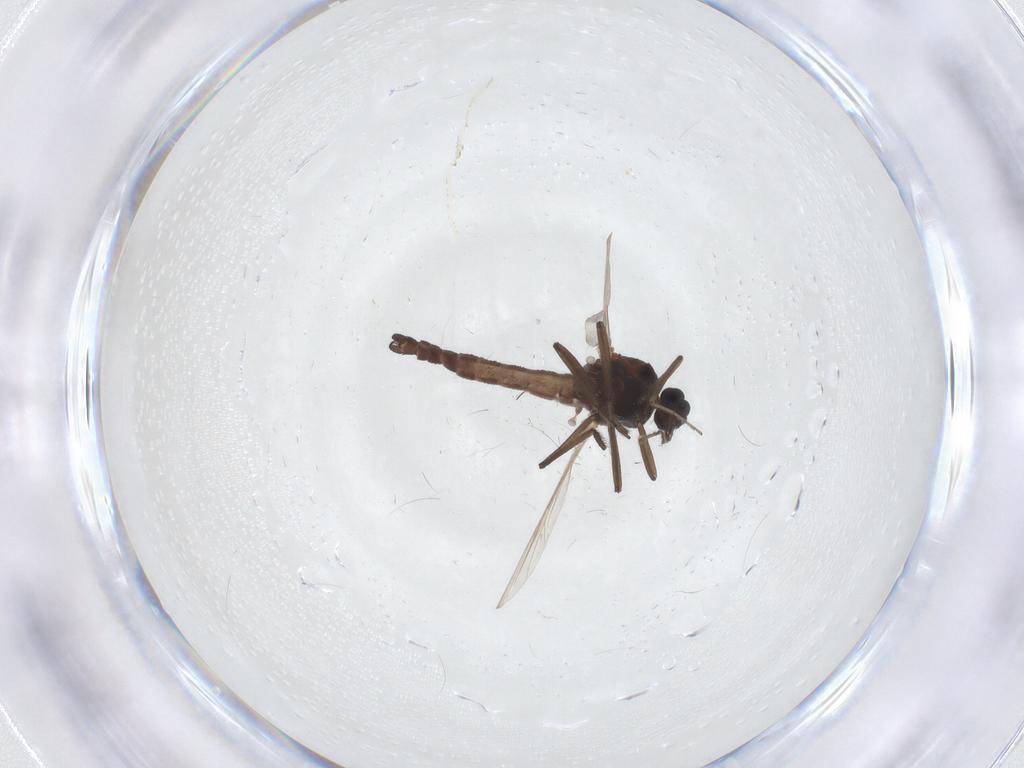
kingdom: Animalia
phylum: Arthropoda
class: Insecta
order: Diptera
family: Ceratopogonidae
